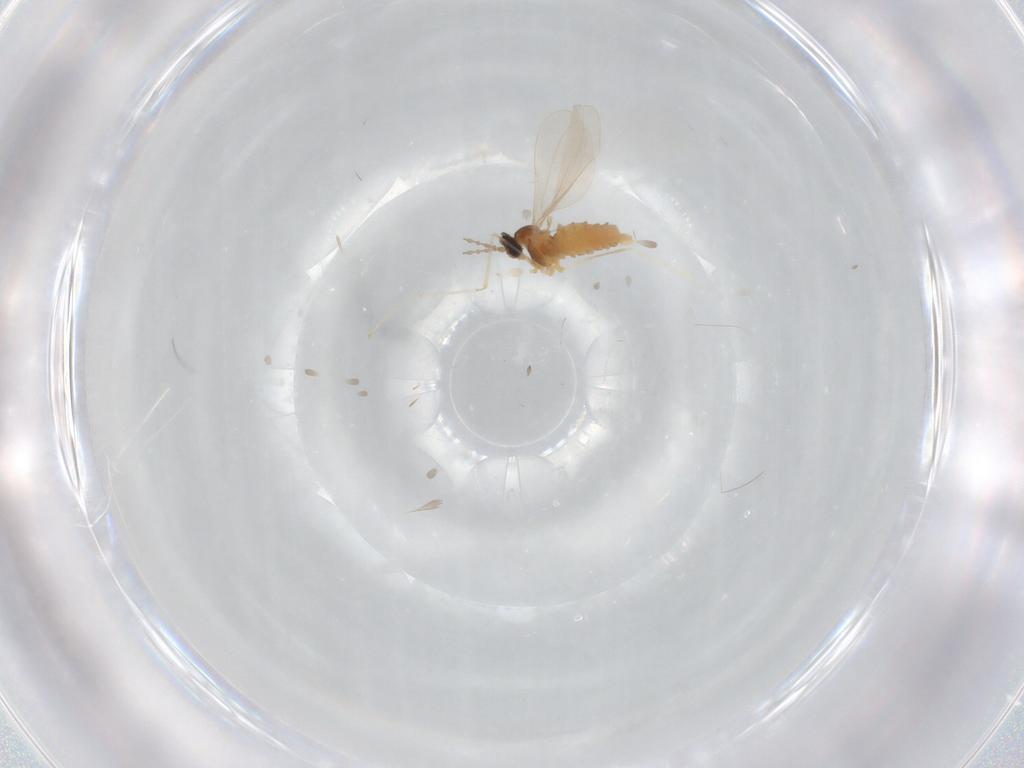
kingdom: Animalia
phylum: Arthropoda
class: Insecta
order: Diptera
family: Cecidomyiidae
